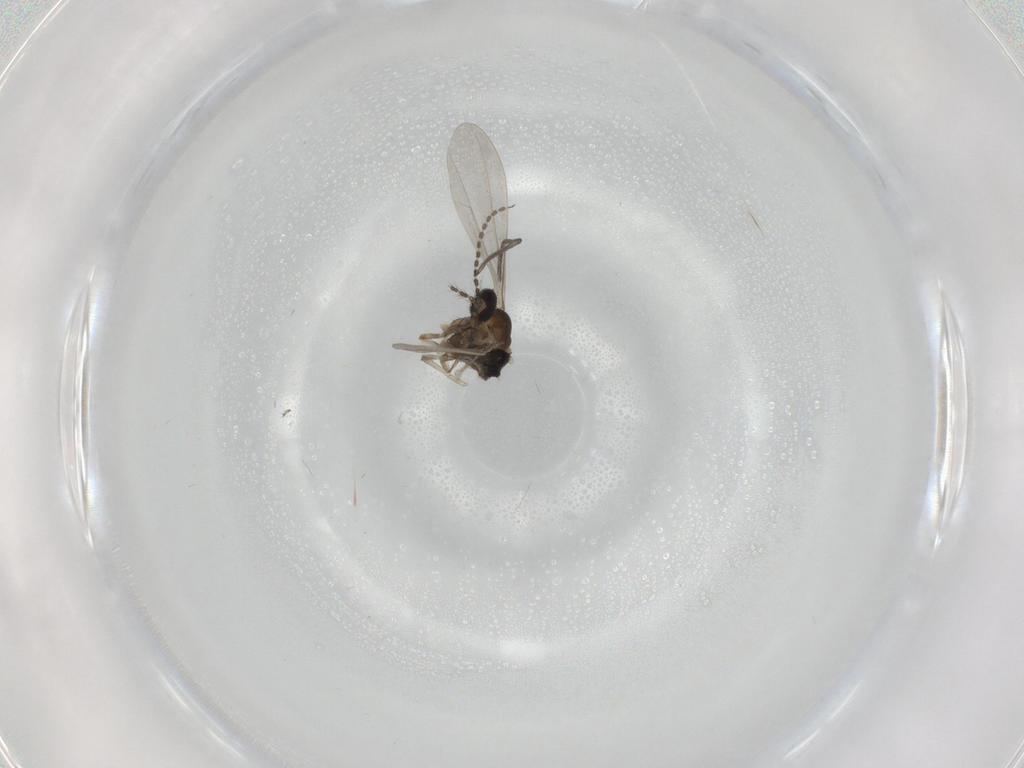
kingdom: Animalia
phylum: Arthropoda
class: Insecta
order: Diptera
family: Cecidomyiidae
